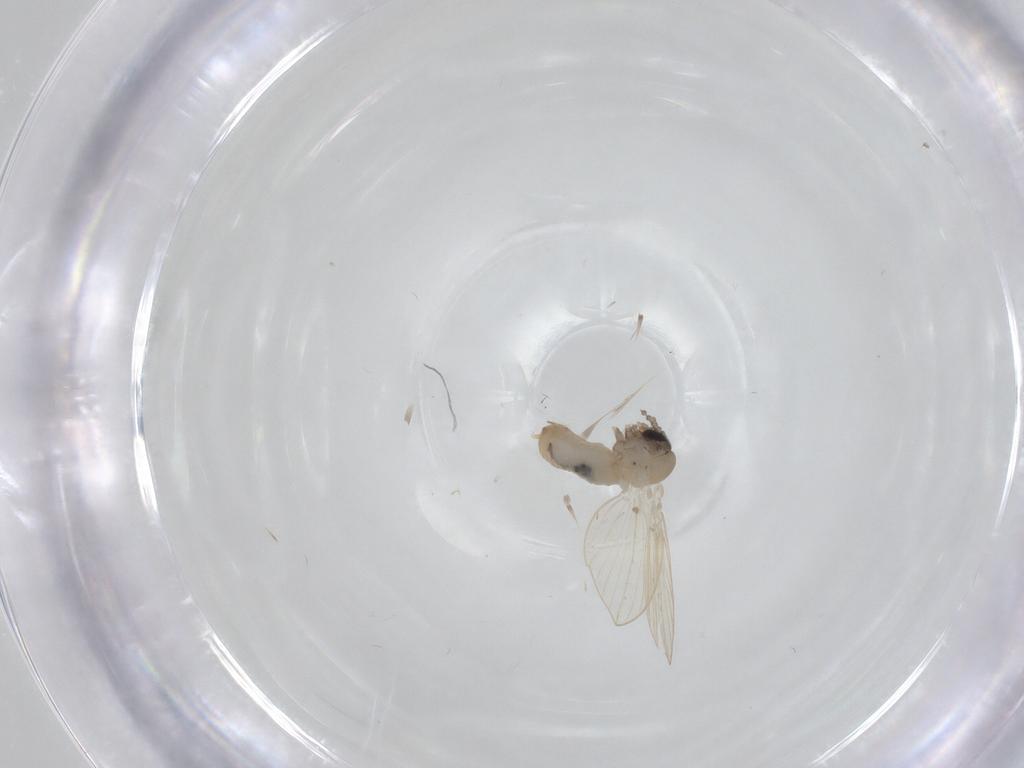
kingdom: Animalia
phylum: Arthropoda
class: Insecta
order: Diptera
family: Psychodidae
